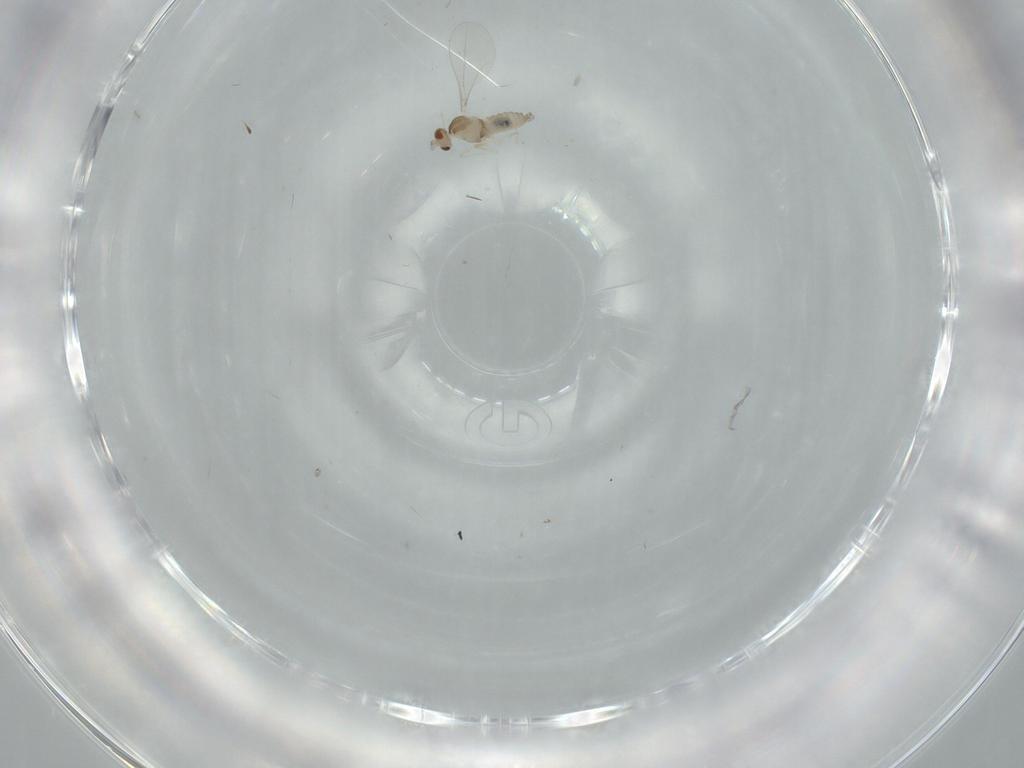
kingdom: Animalia
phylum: Arthropoda
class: Insecta
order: Diptera
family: Cecidomyiidae
